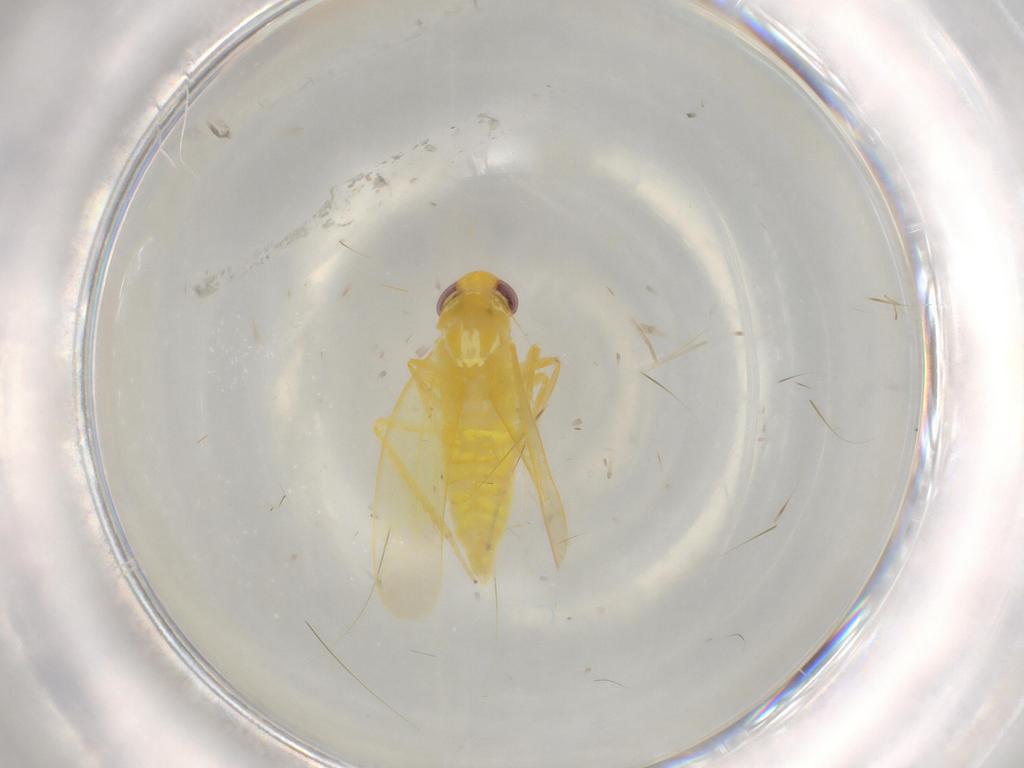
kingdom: Animalia
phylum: Arthropoda
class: Insecta
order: Hemiptera
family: Cicadellidae
